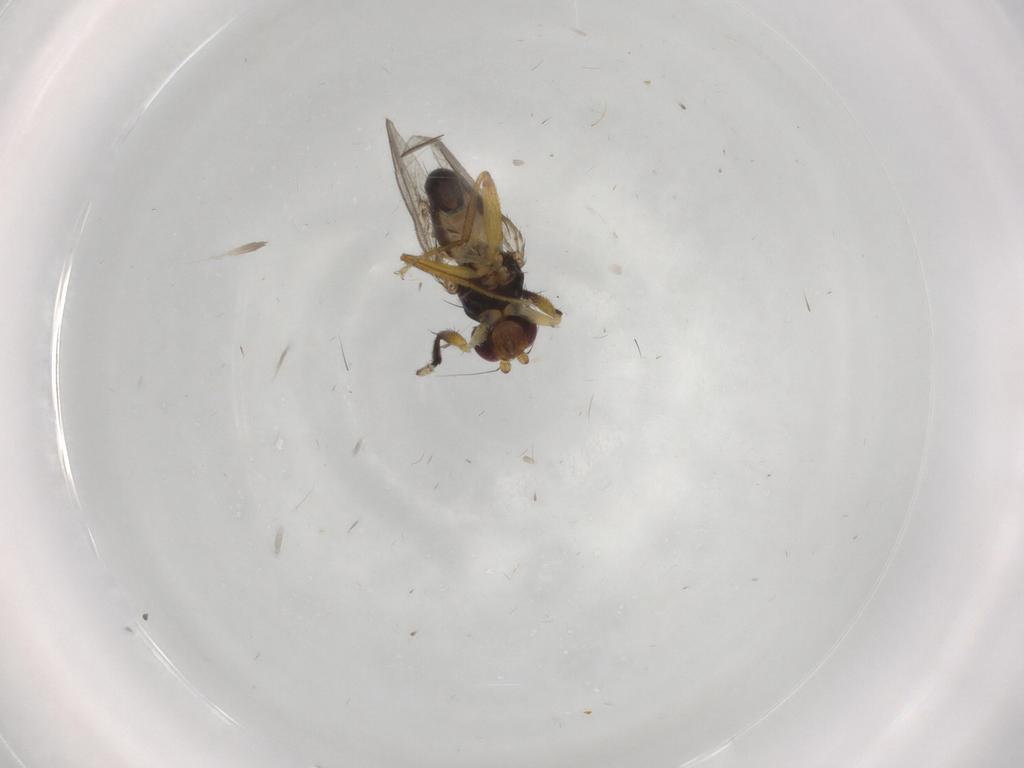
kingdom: Animalia
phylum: Arthropoda
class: Insecta
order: Diptera
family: Cypselosomatidae
